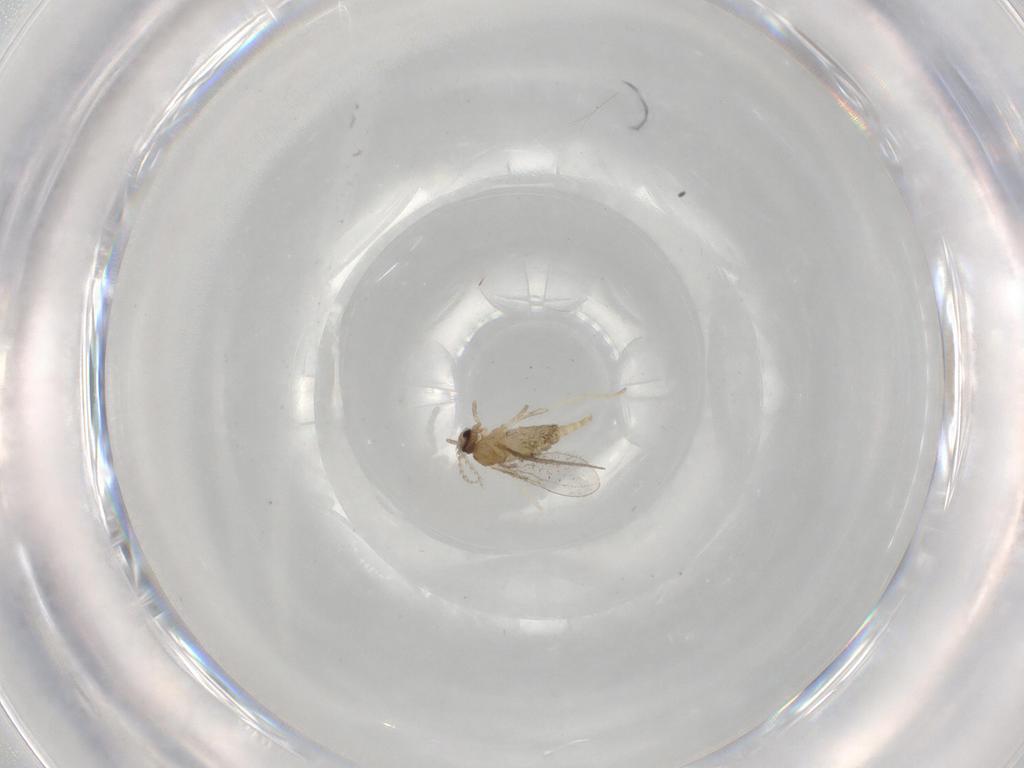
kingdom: Animalia
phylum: Arthropoda
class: Insecta
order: Diptera
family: Cecidomyiidae
